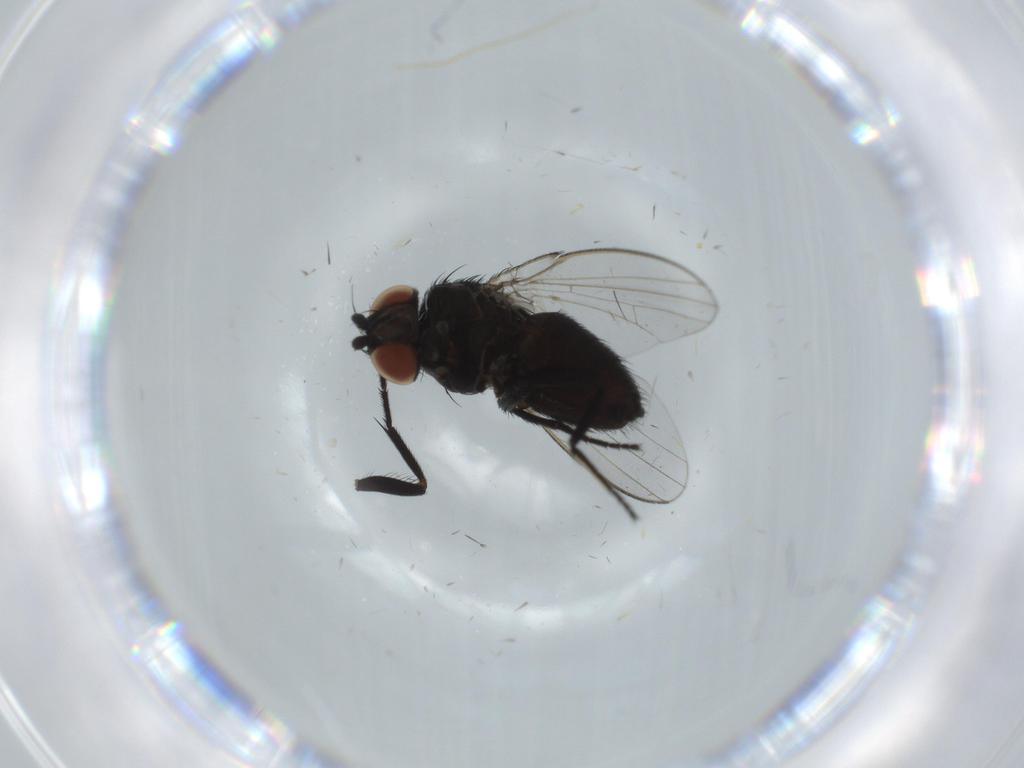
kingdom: Animalia
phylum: Arthropoda
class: Insecta
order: Diptera
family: Milichiidae
